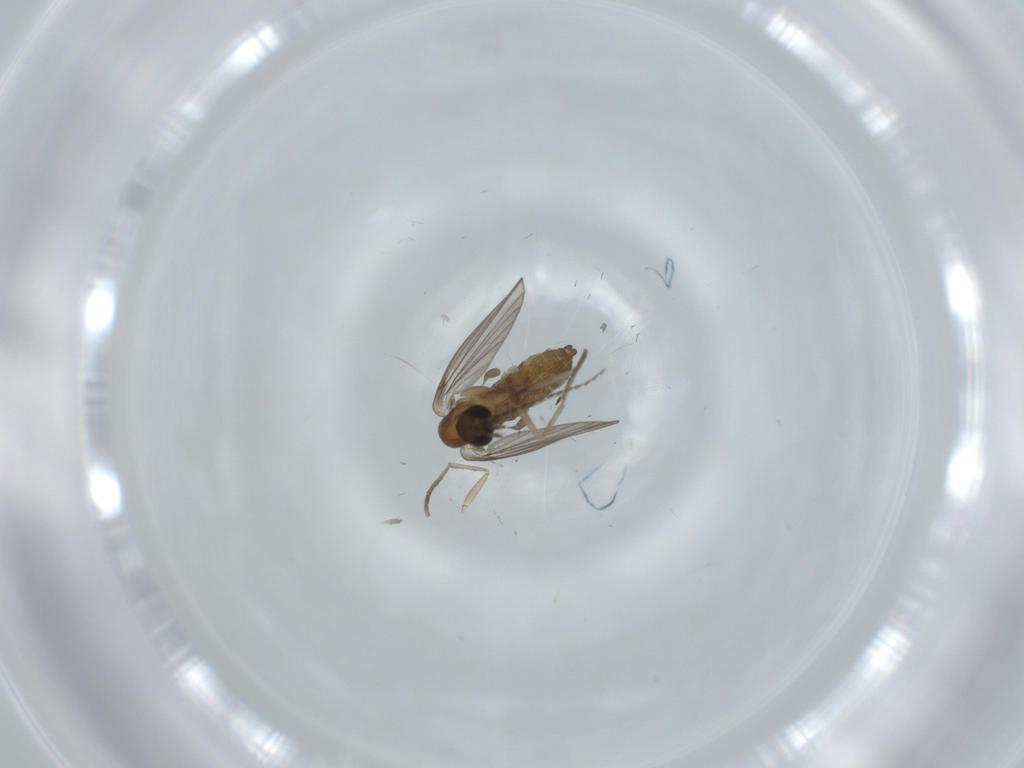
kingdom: Animalia
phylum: Arthropoda
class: Insecta
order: Diptera
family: Psychodidae
